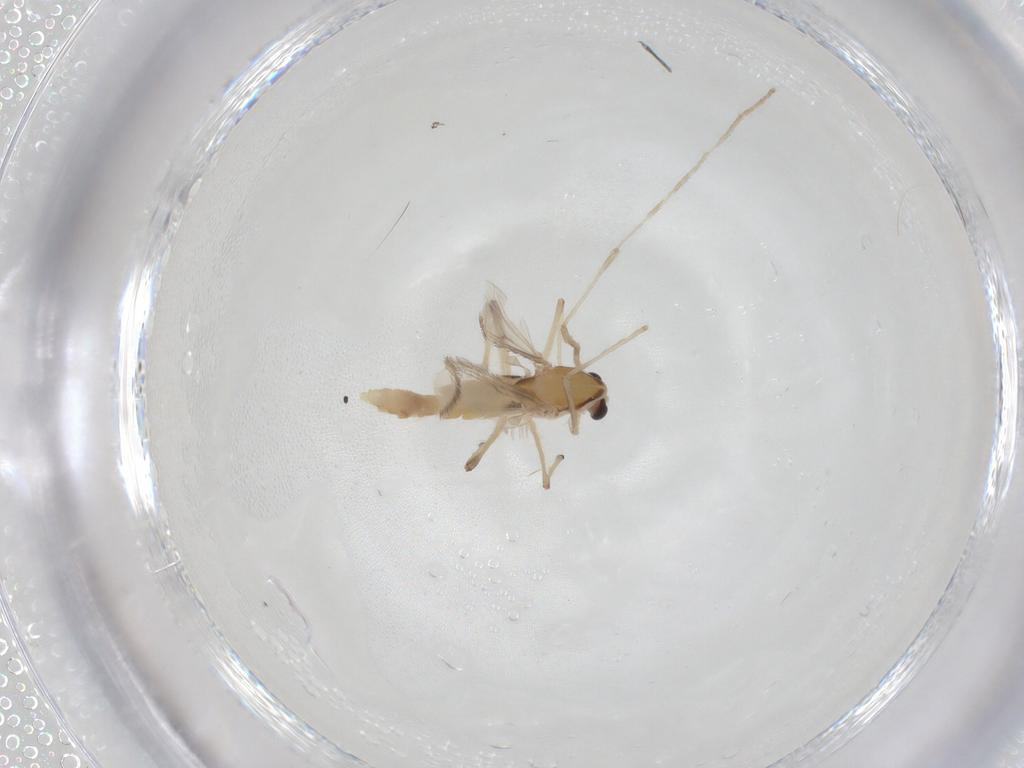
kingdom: Animalia
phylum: Arthropoda
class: Insecta
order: Diptera
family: Chironomidae
